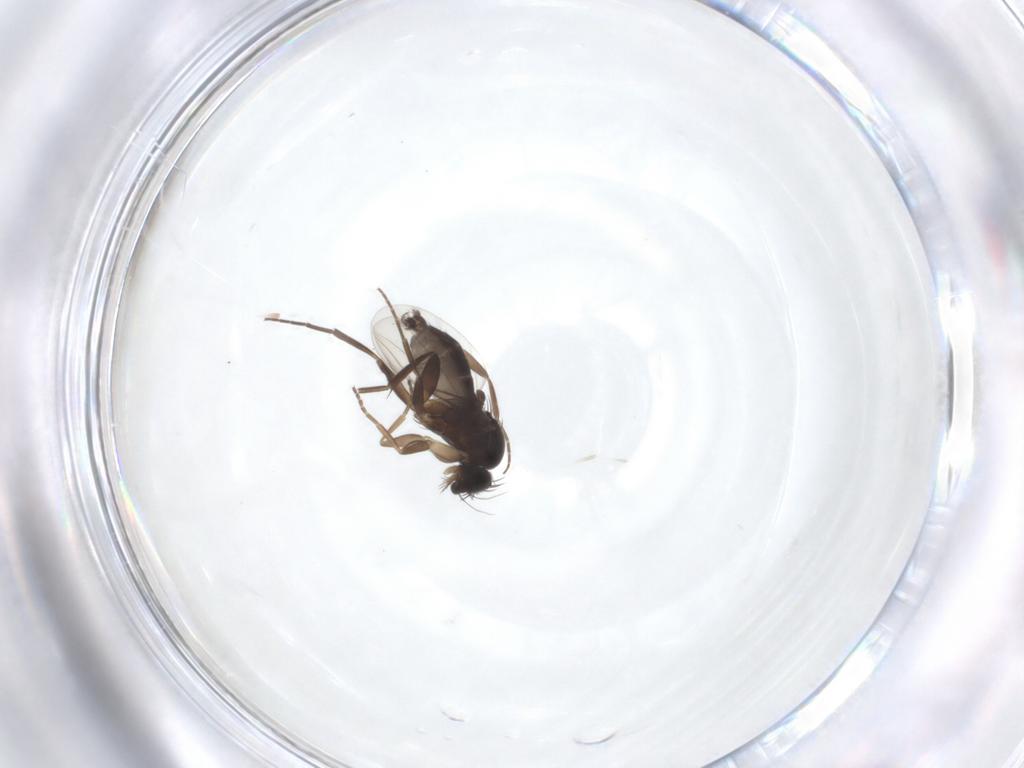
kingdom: Animalia
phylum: Arthropoda
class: Insecta
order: Diptera
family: Phoridae
